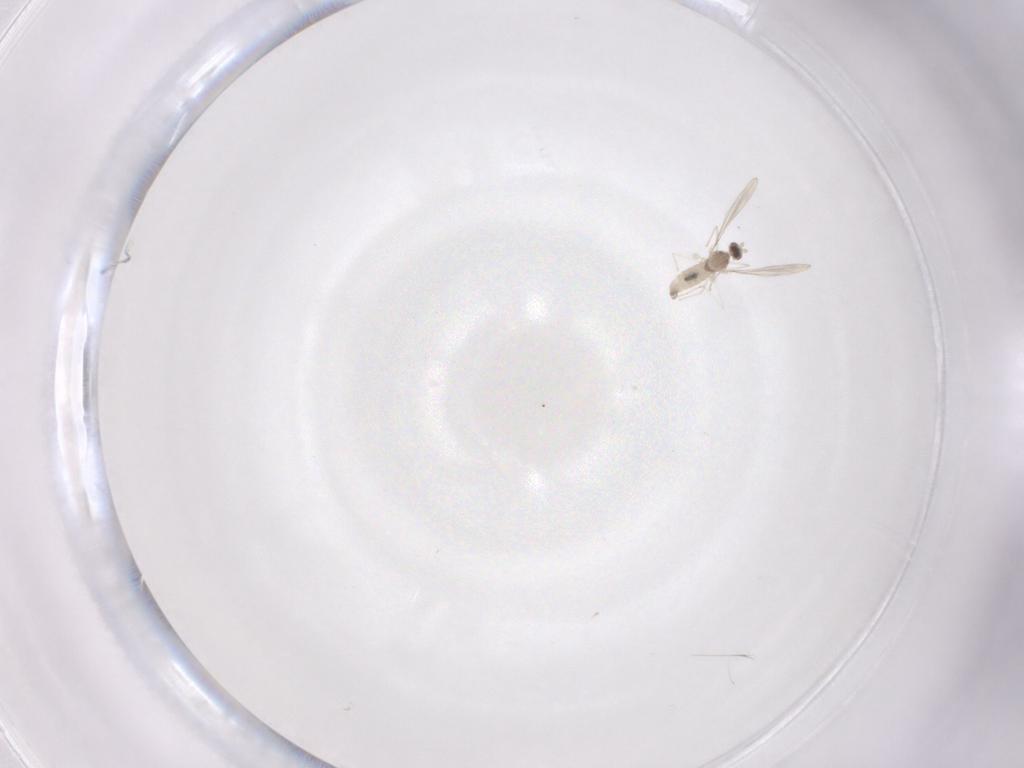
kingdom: Animalia
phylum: Arthropoda
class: Insecta
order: Diptera
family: Cecidomyiidae
